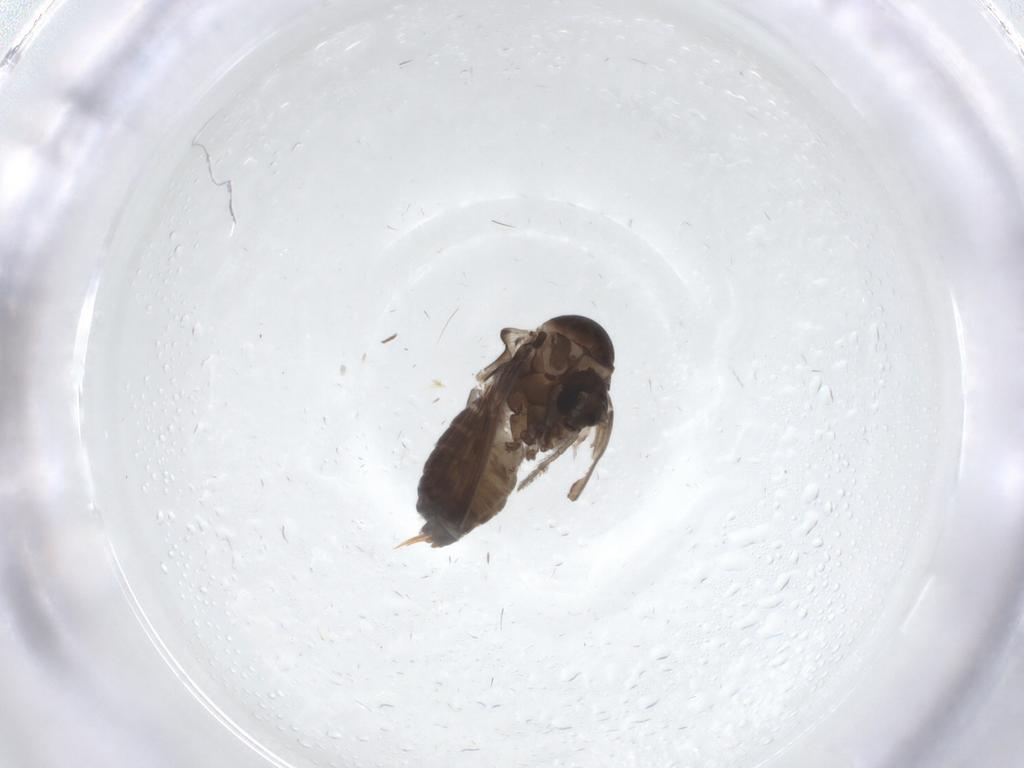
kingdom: Animalia
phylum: Arthropoda
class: Insecta
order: Diptera
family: Psychodidae
